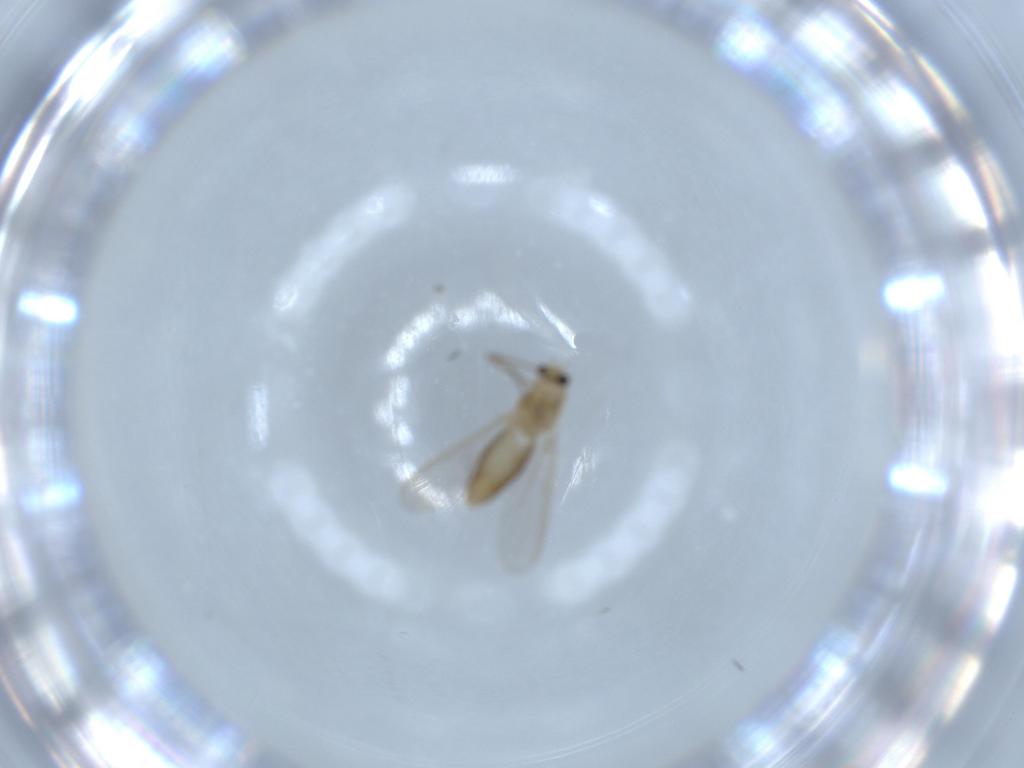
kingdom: Animalia
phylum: Arthropoda
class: Insecta
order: Diptera
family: Chironomidae
